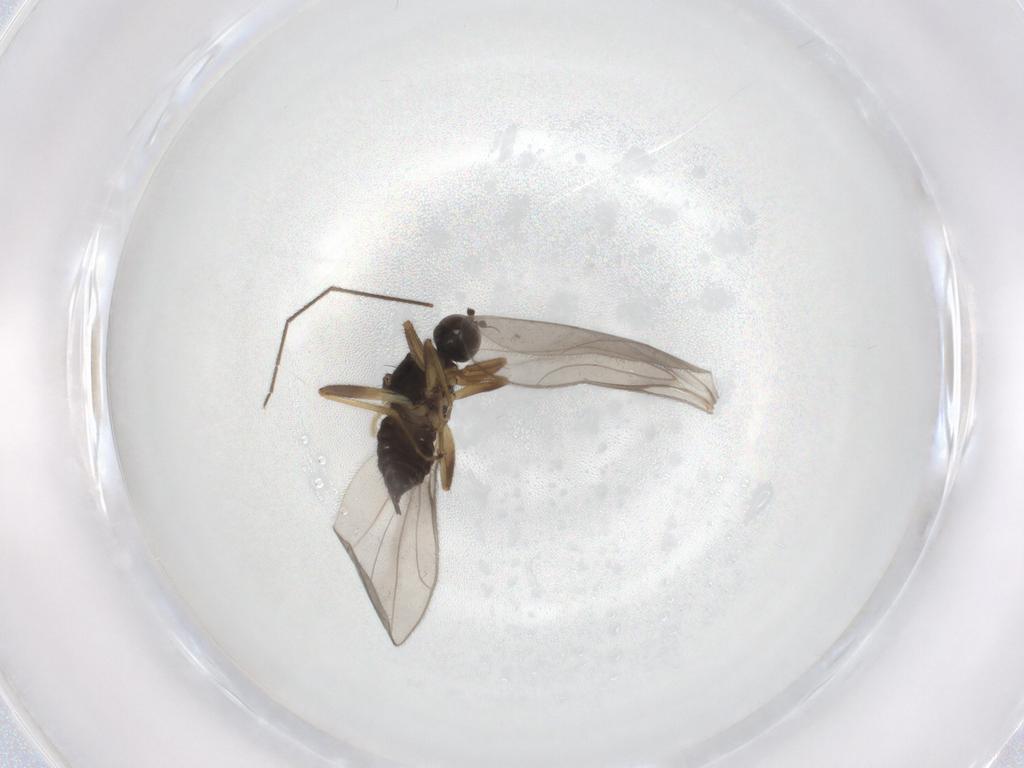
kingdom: Animalia
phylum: Arthropoda
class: Insecta
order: Diptera
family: Hybotidae
